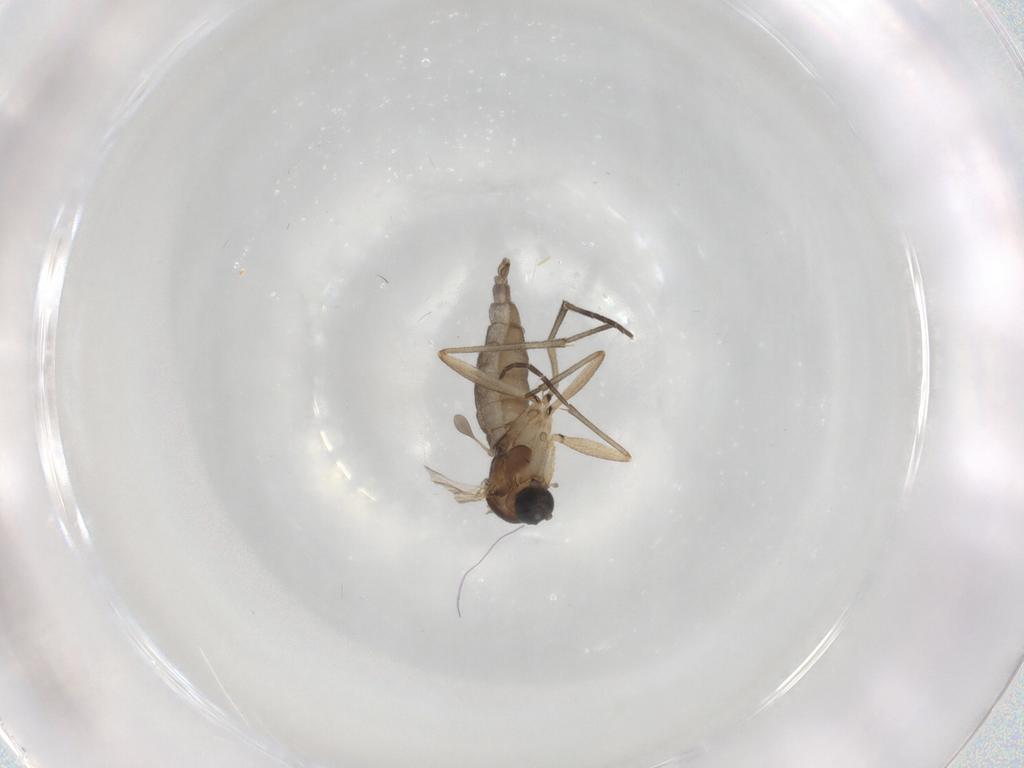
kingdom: Animalia
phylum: Arthropoda
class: Insecta
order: Diptera
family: Sciaridae
